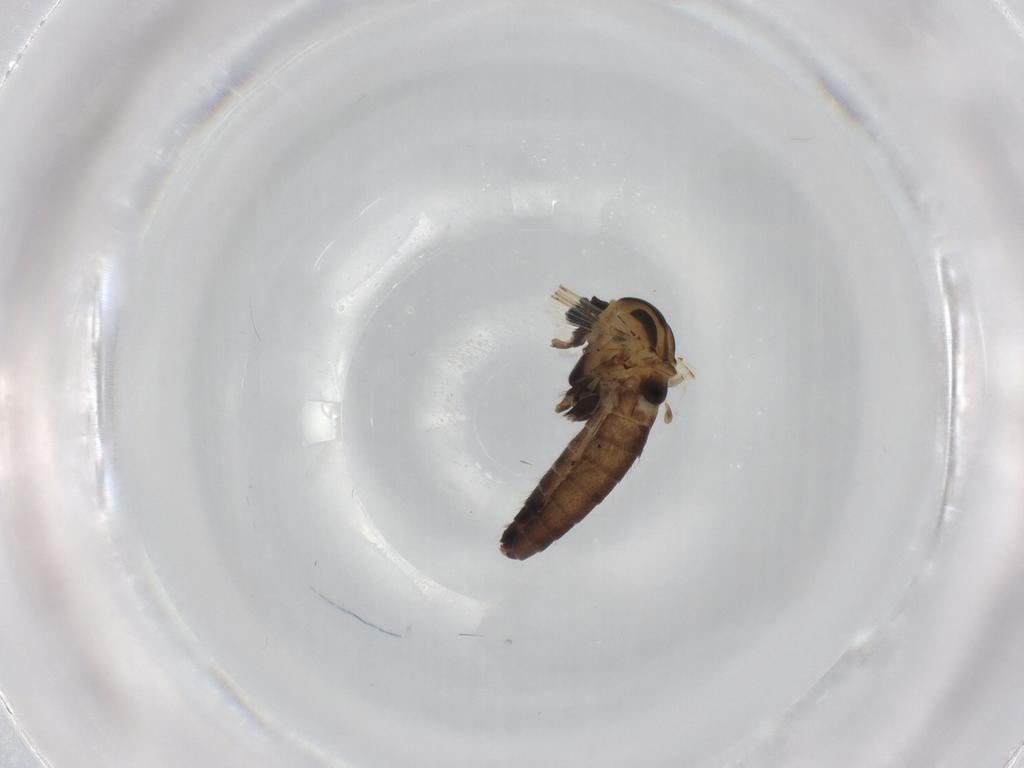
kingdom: Animalia
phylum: Arthropoda
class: Insecta
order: Diptera
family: Chironomidae
